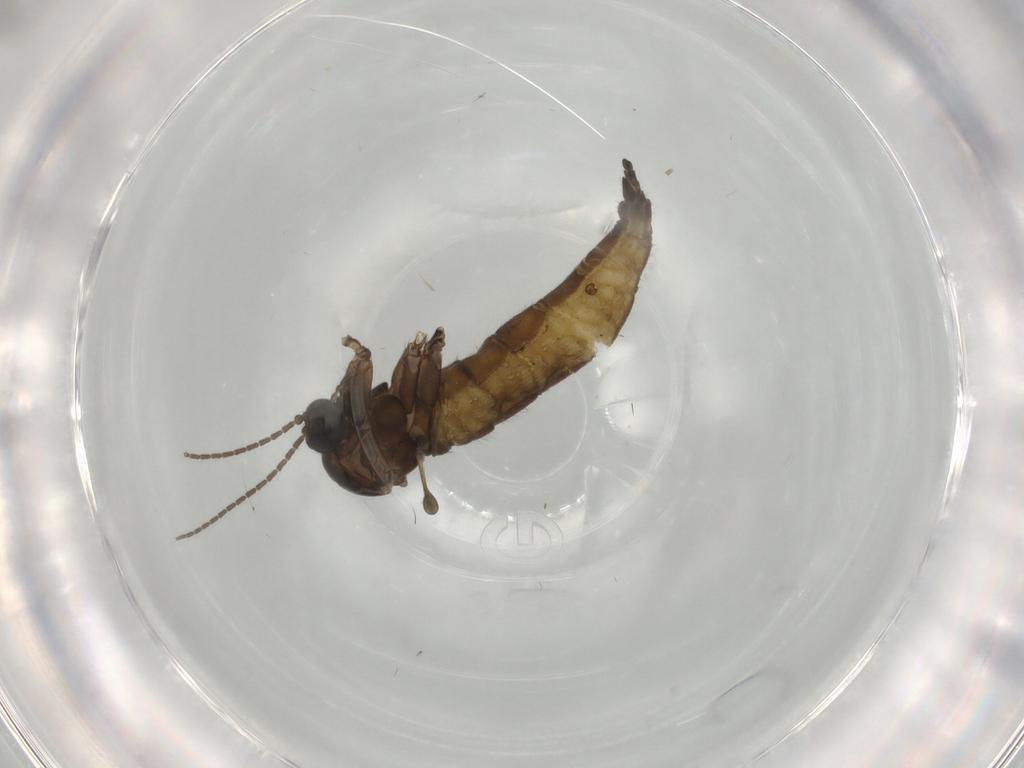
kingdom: Animalia
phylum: Arthropoda
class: Insecta
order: Diptera
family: Sciaridae
